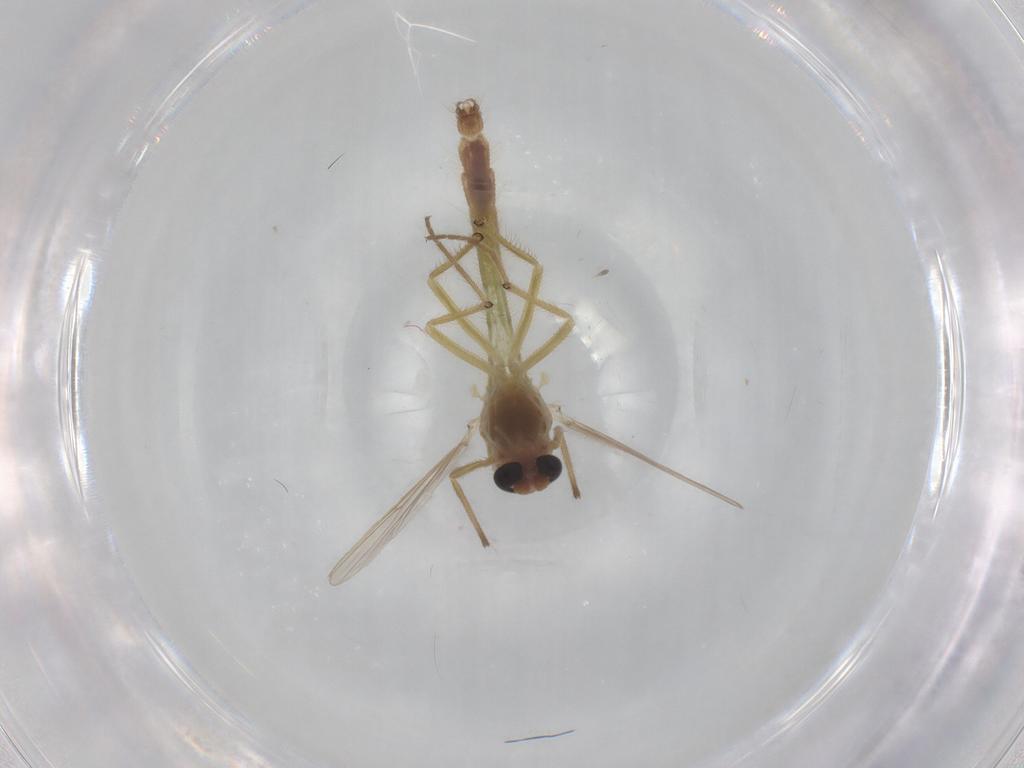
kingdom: Animalia
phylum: Arthropoda
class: Insecta
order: Diptera
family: Chironomidae
